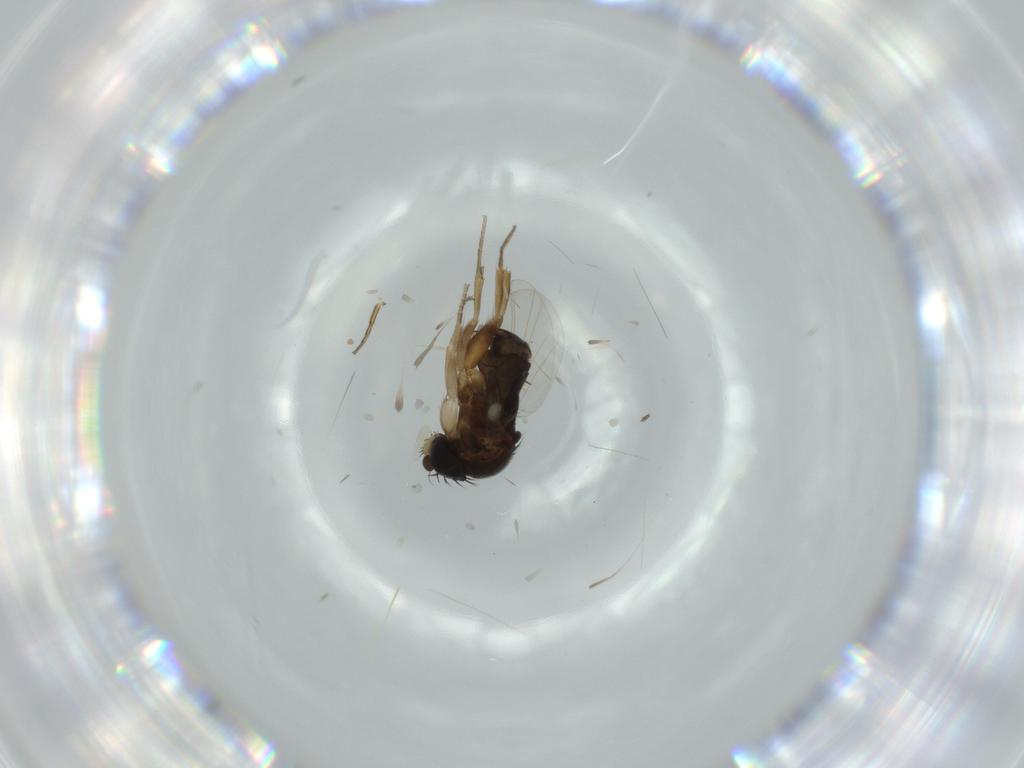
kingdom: Animalia
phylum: Arthropoda
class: Insecta
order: Diptera
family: Phoridae
